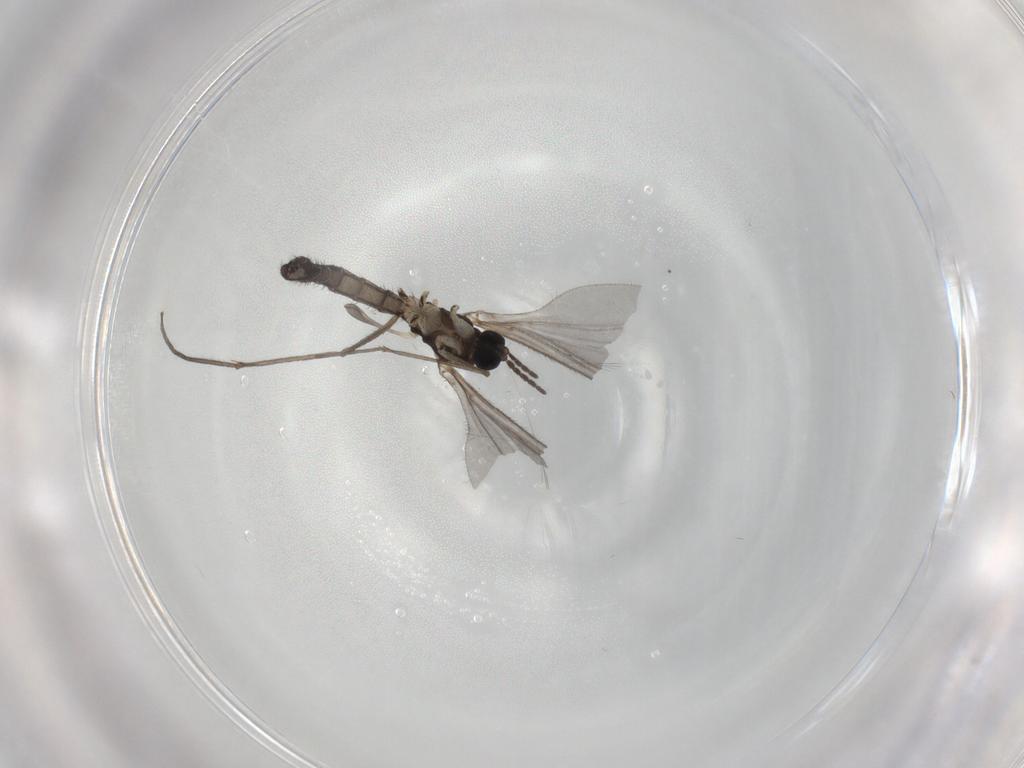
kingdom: Animalia
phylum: Arthropoda
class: Insecta
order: Diptera
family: Sciaridae
